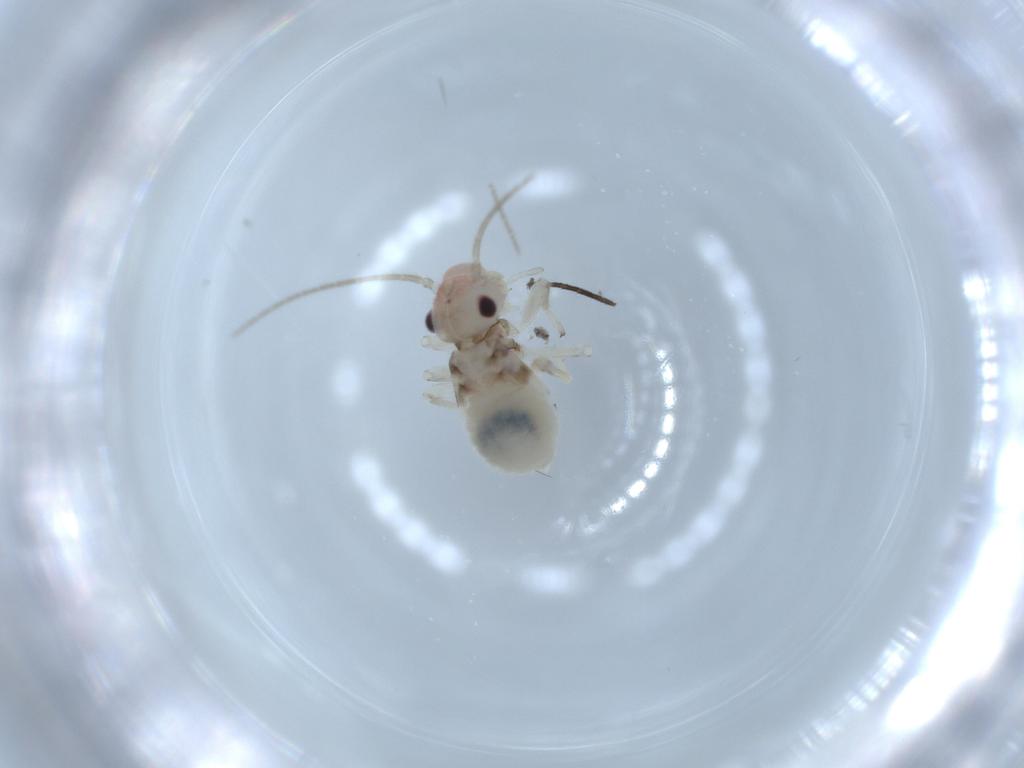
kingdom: Animalia
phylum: Arthropoda
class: Insecta
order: Psocodea
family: Amphipsocidae
